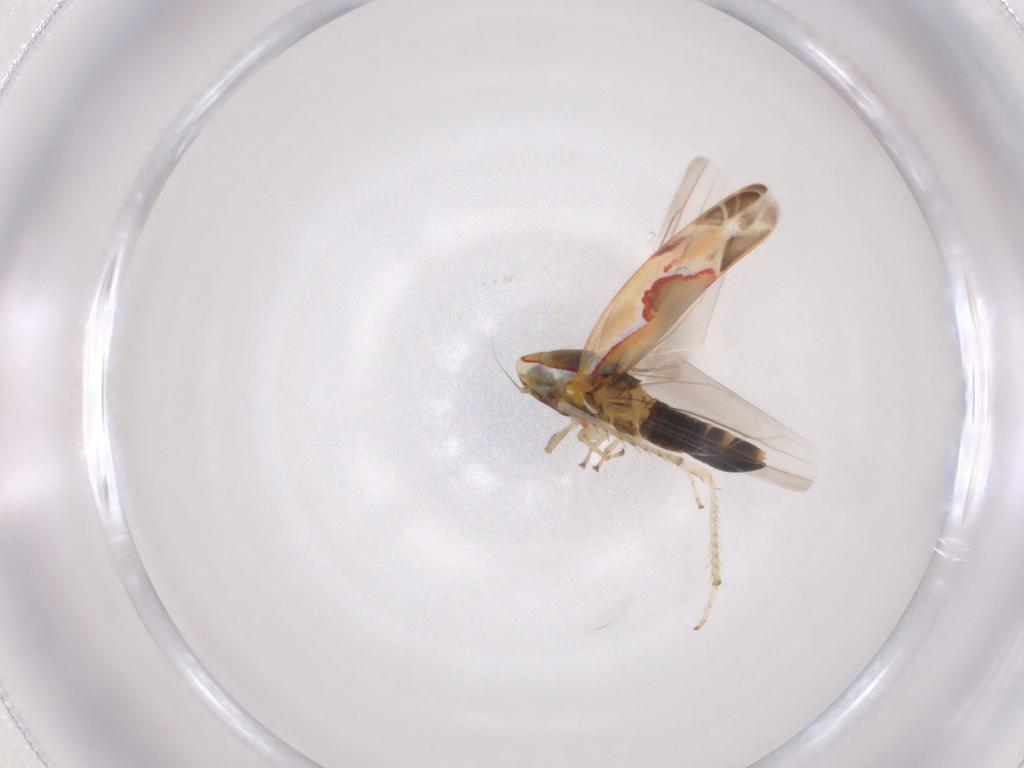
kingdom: Animalia
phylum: Arthropoda
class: Insecta
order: Hemiptera
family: Cicadellidae
